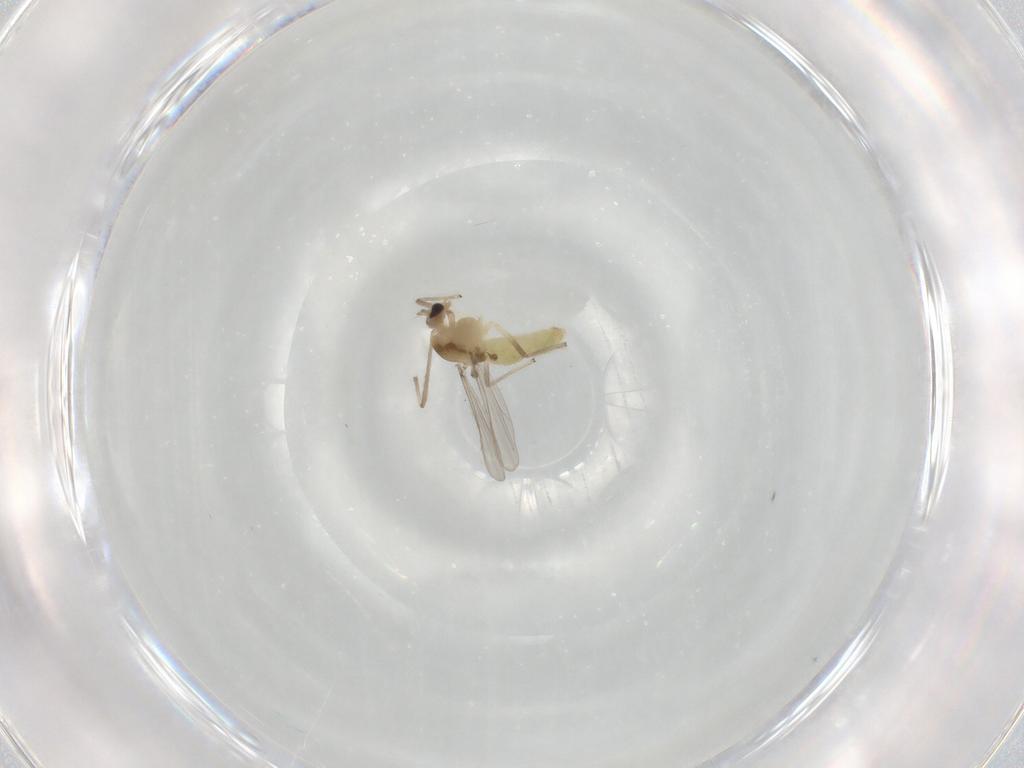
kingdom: Animalia
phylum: Arthropoda
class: Insecta
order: Diptera
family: Chironomidae
